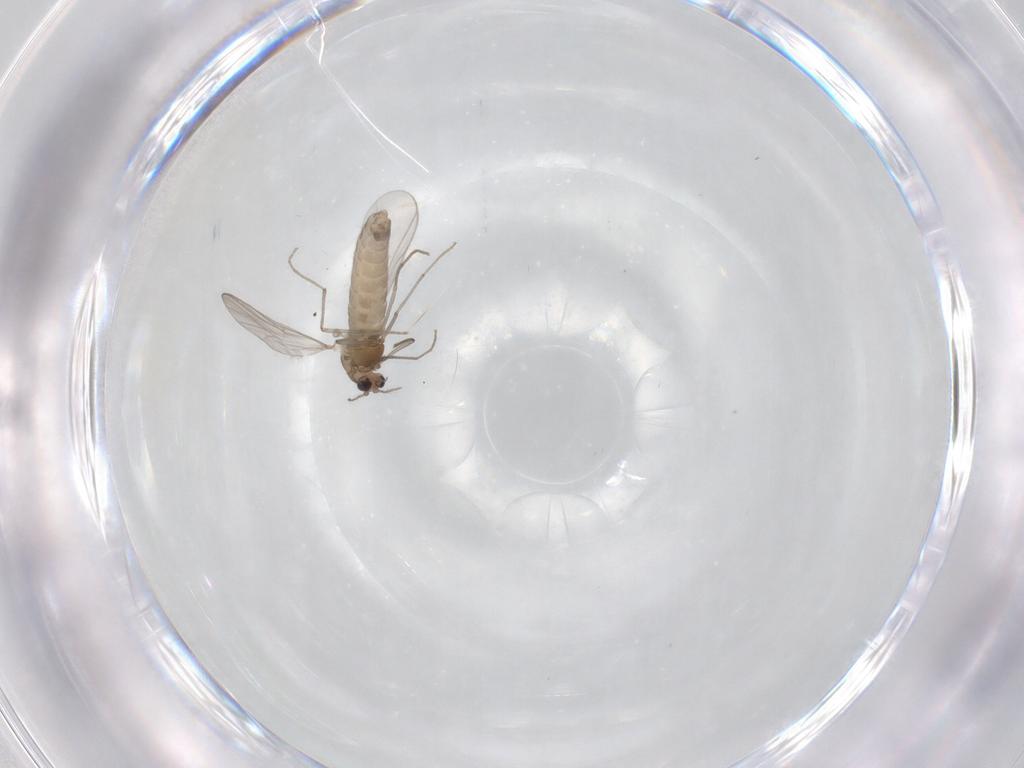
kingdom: Animalia
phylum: Arthropoda
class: Insecta
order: Diptera
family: Chironomidae
